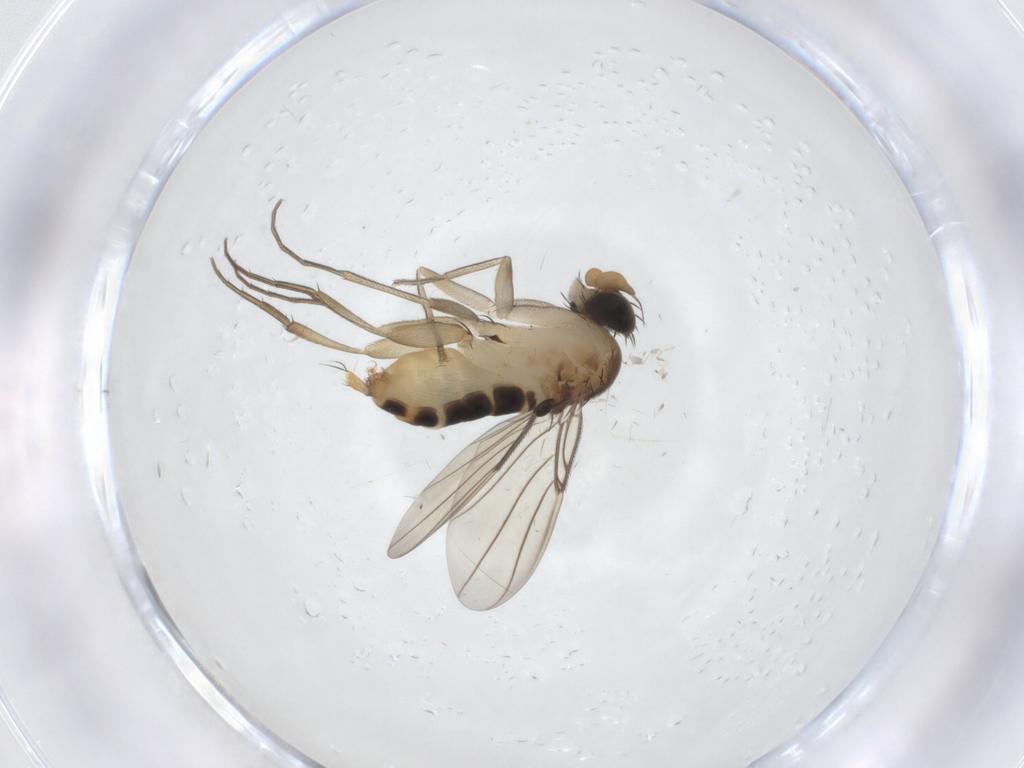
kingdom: Animalia
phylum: Arthropoda
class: Insecta
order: Diptera
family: Phoridae
